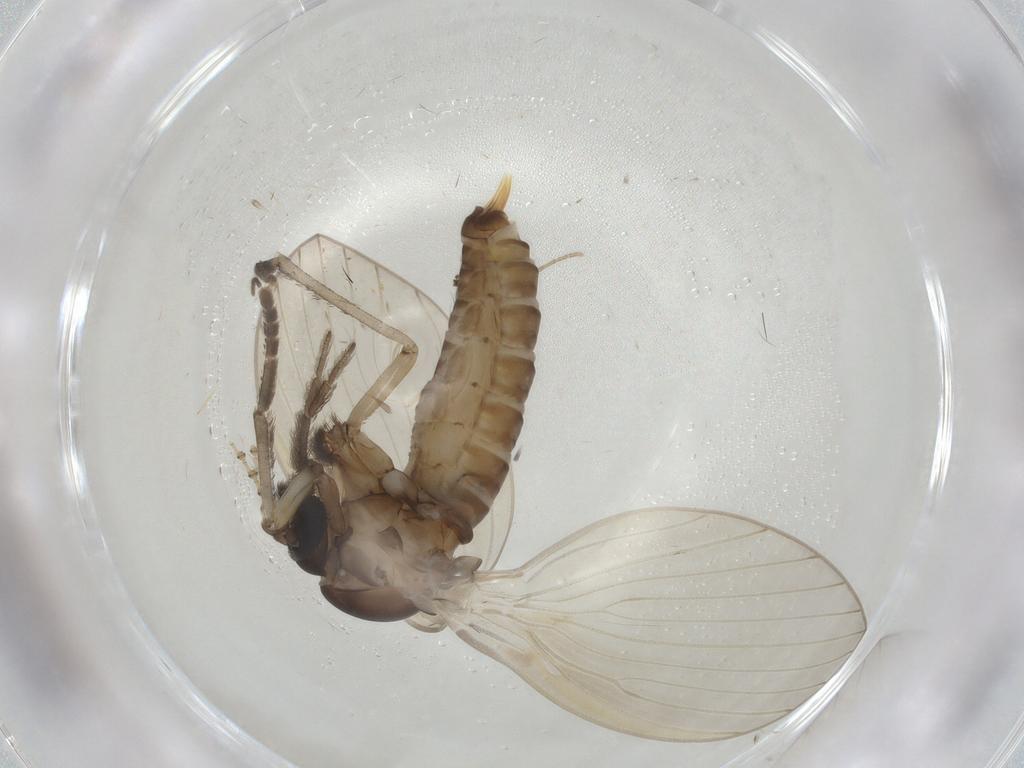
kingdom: Animalia
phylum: Arthropoda
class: Insecta
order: Diptera
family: Psychodidae
